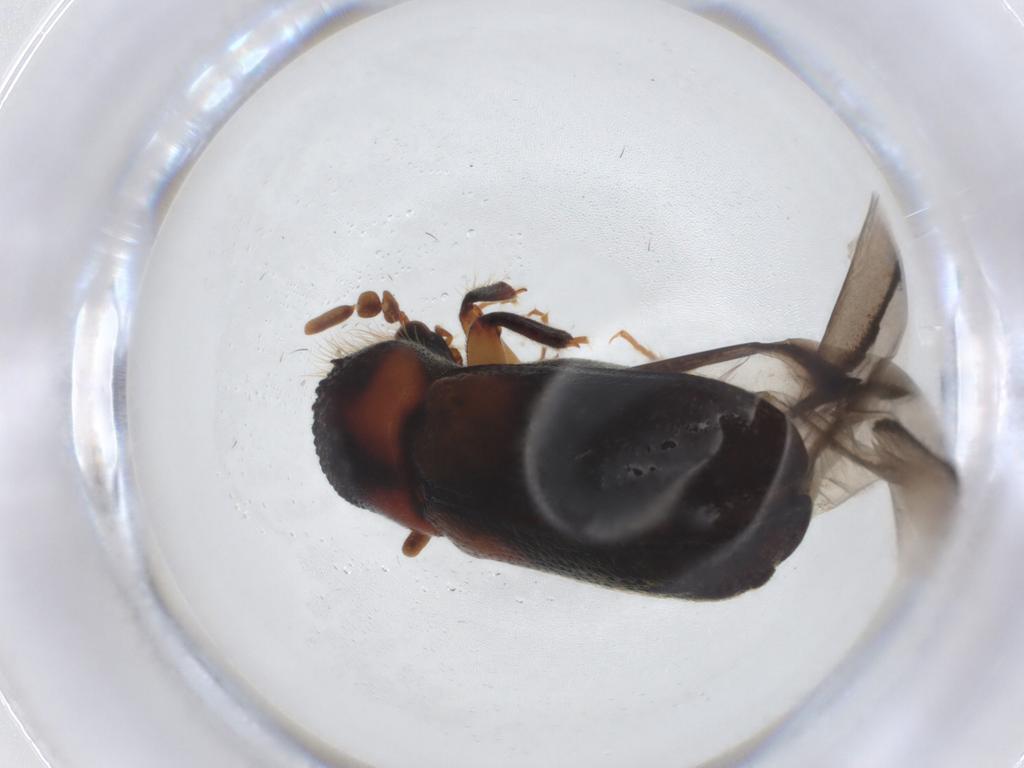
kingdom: Animalia
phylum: Arthropoda
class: Insecta
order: Coleoptera
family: Bostrichidae
